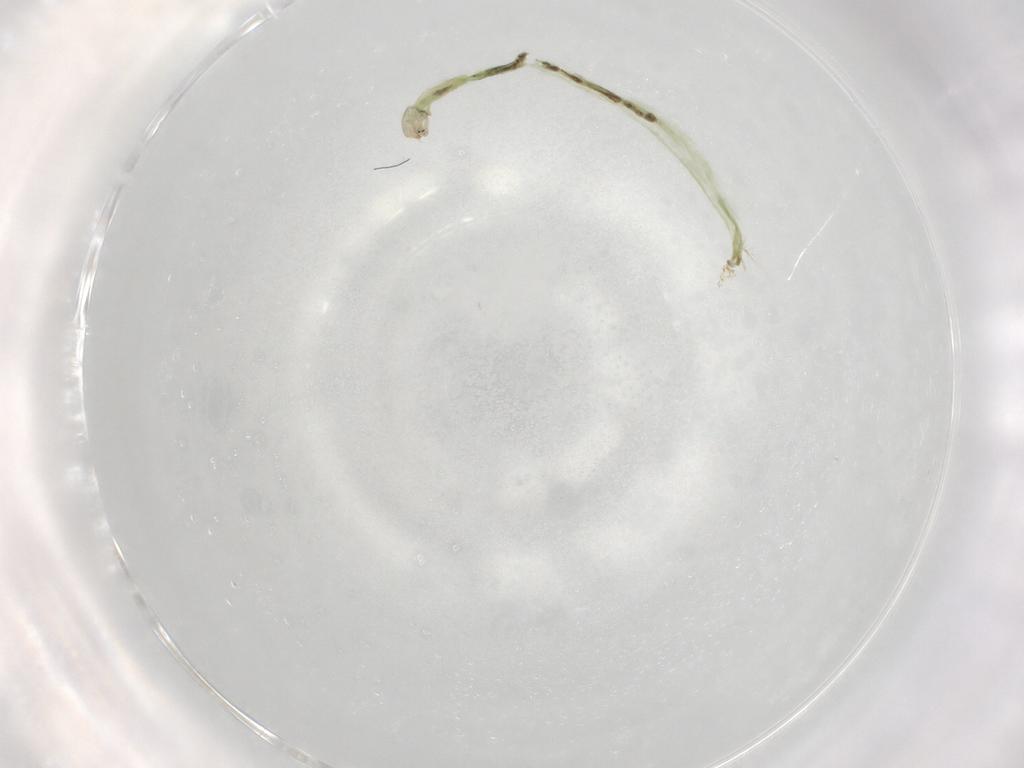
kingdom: Animalia
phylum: Arthropoda
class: Insecta
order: Diptera
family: Chironomidae
